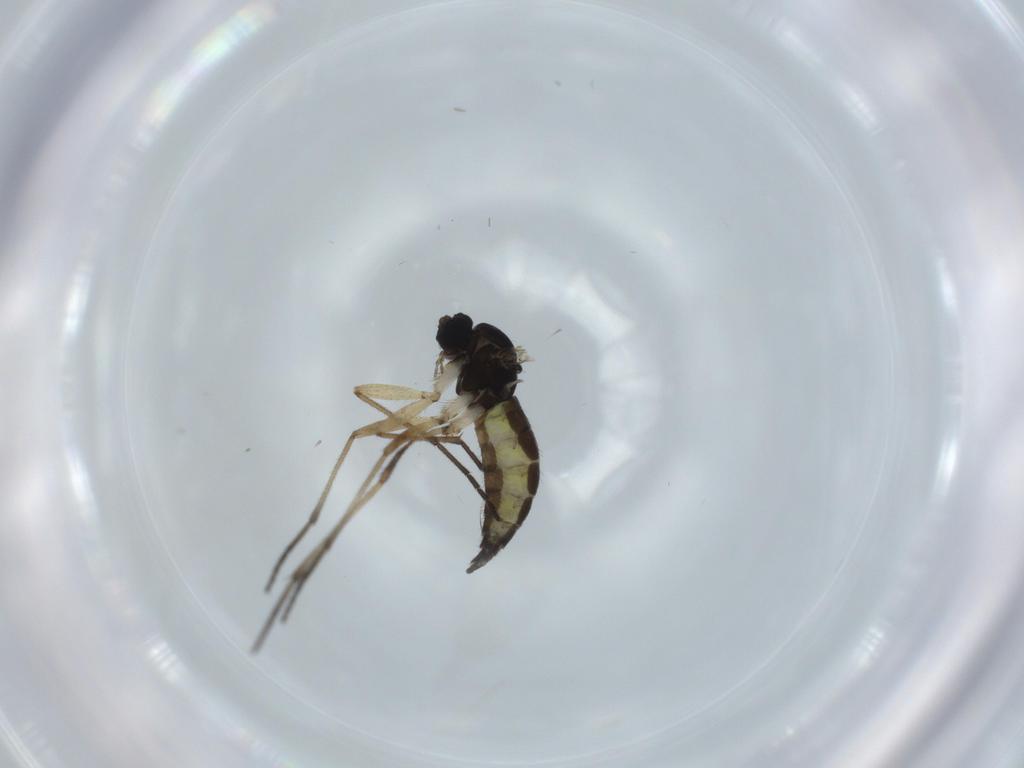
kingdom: Animalia
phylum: Arthropoda
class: Insecta
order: Diptera
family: Sciaridae
